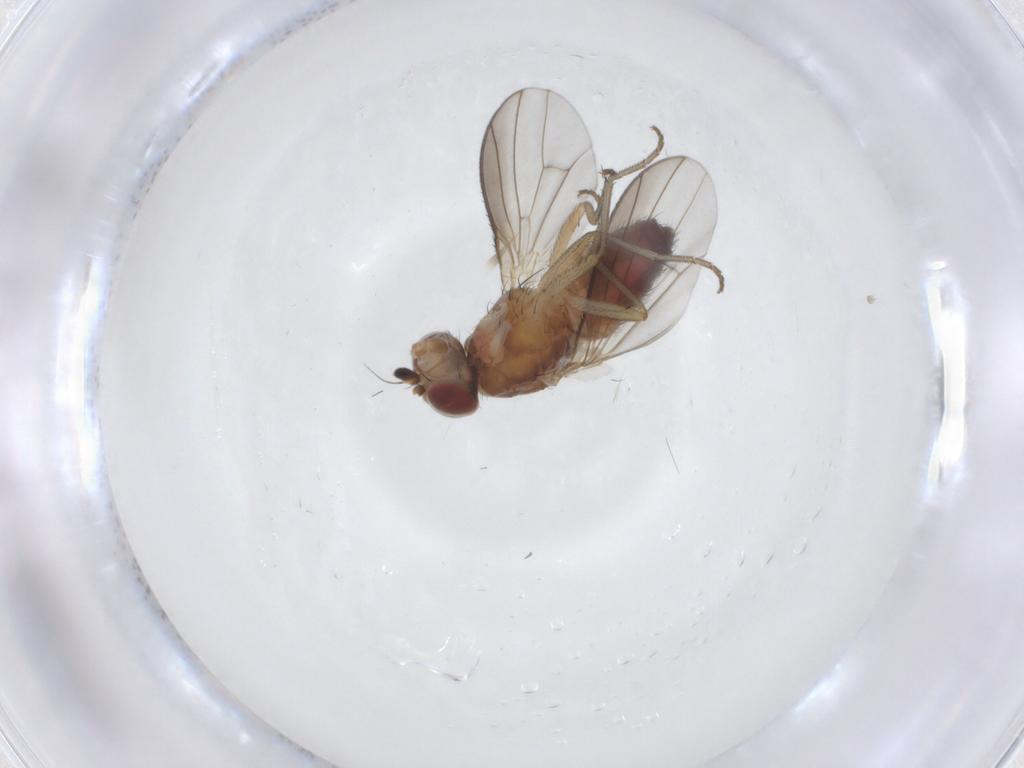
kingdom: Animalia
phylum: Arthropoda
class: Insecta
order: Diptera
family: Heleomyzidae
